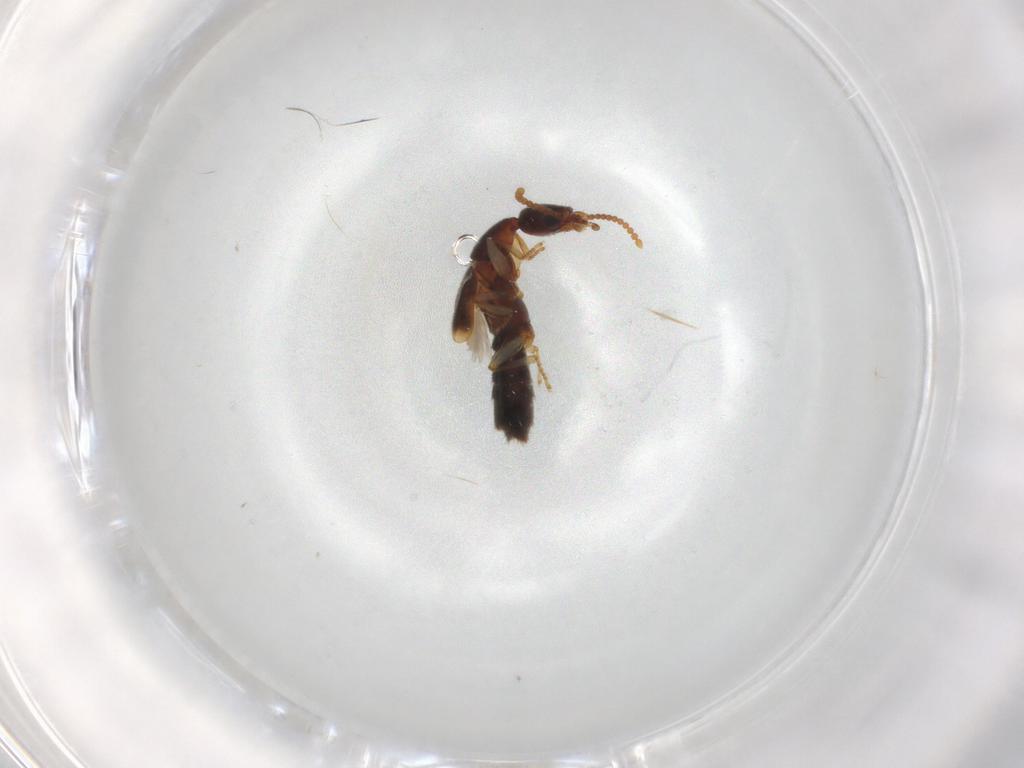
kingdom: Animalia
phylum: Arthropoda
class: Insecta
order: Coleoptera
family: Staphylinidae
